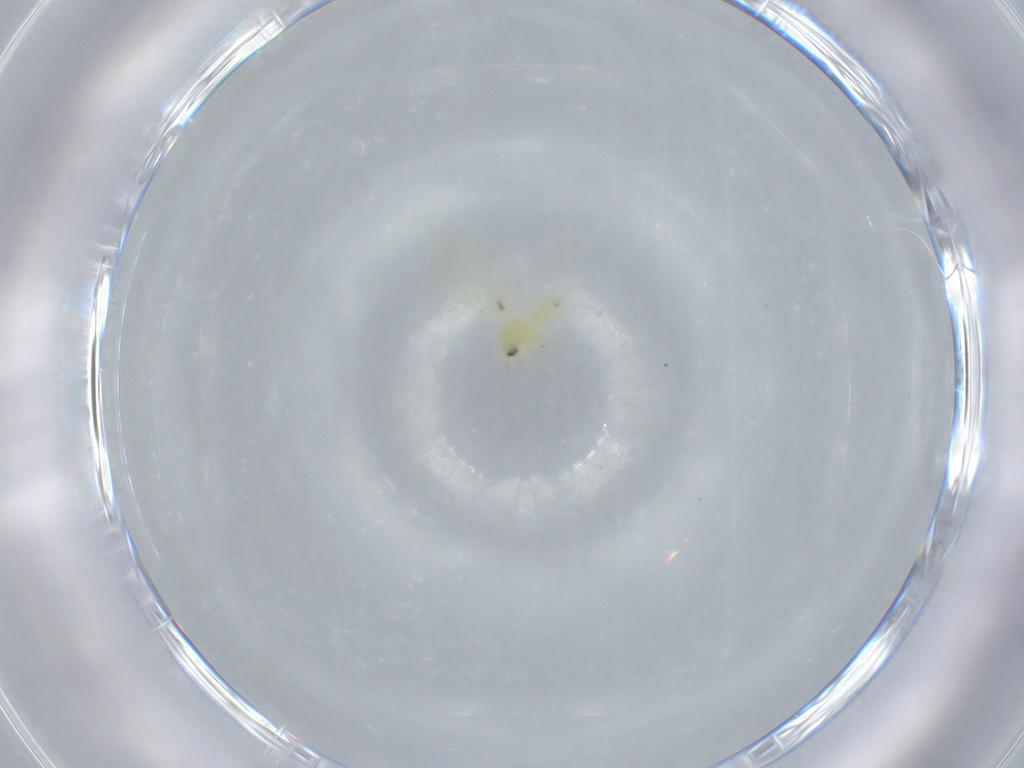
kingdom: Animalia
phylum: Arthropoda
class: Insecta
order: Hemiptera
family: Aleyrodidae
